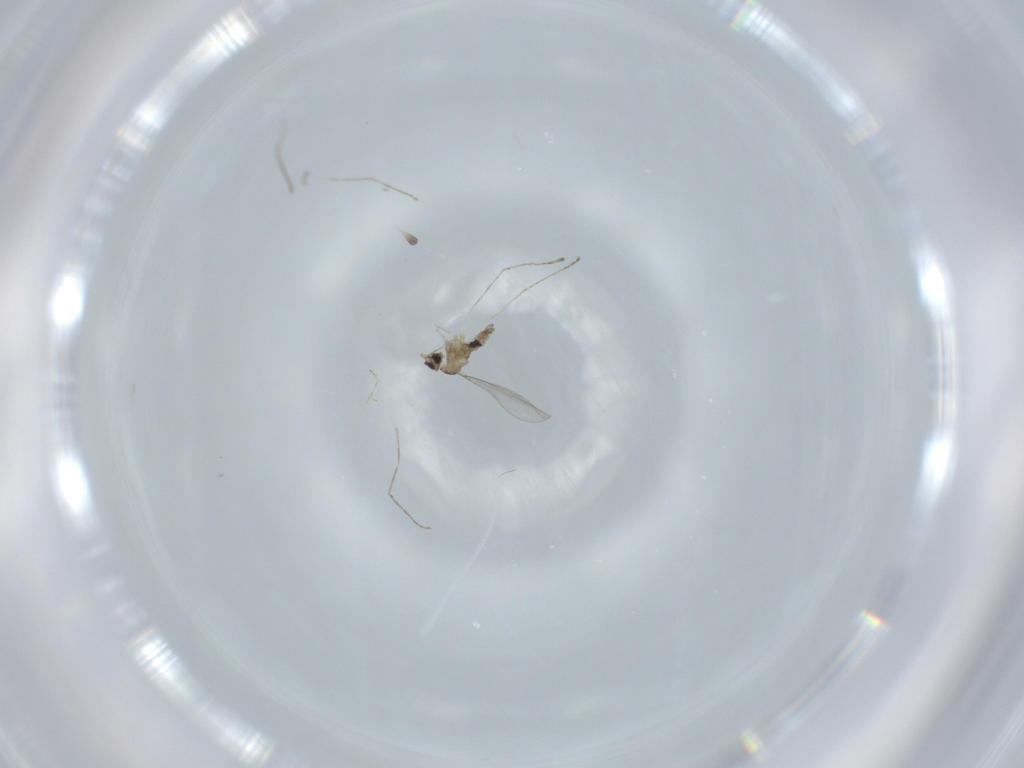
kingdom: Animalia
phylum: Arthropoda
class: Insecta
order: Diptera
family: Cecidomyiidae
